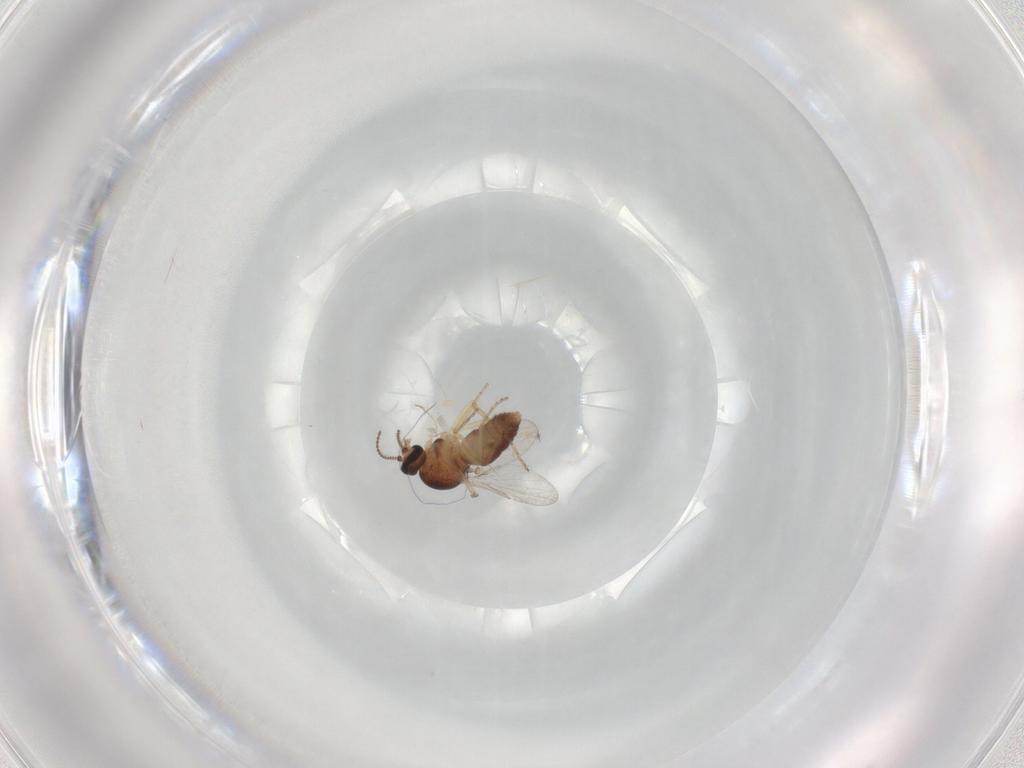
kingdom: Animalia
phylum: Arthropoda
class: Insecta
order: Diptera
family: Ceratopogonidae
